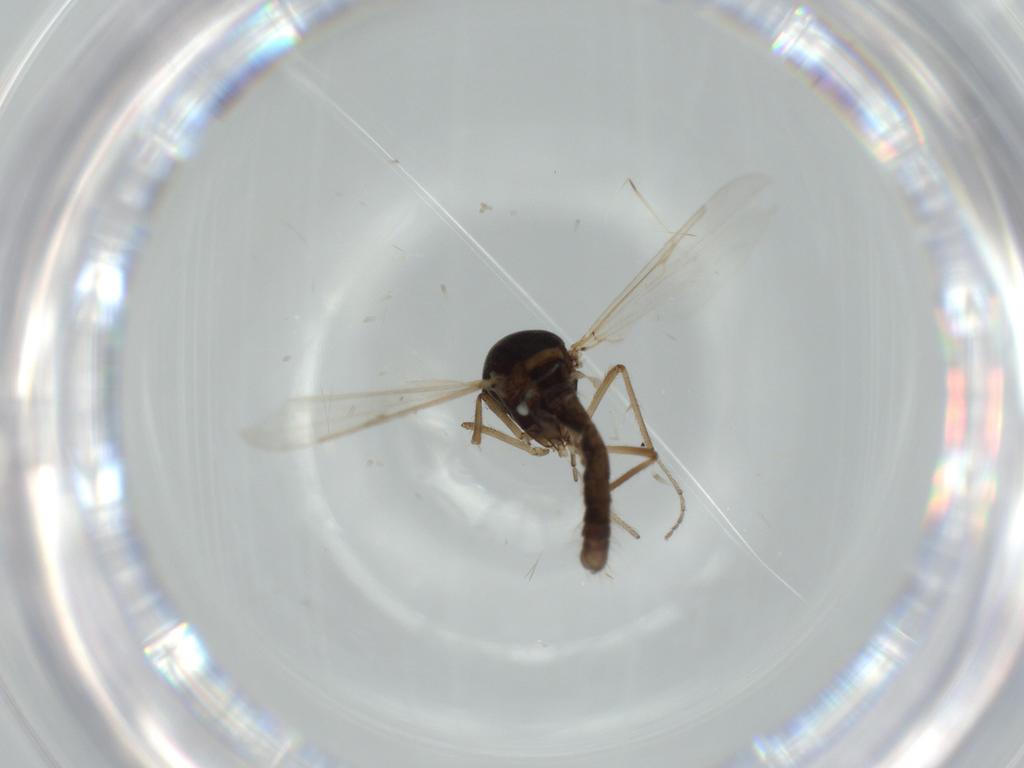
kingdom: Animalia
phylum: Arthropoda
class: Insecta
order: Diptera
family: Ceratopogonidae
